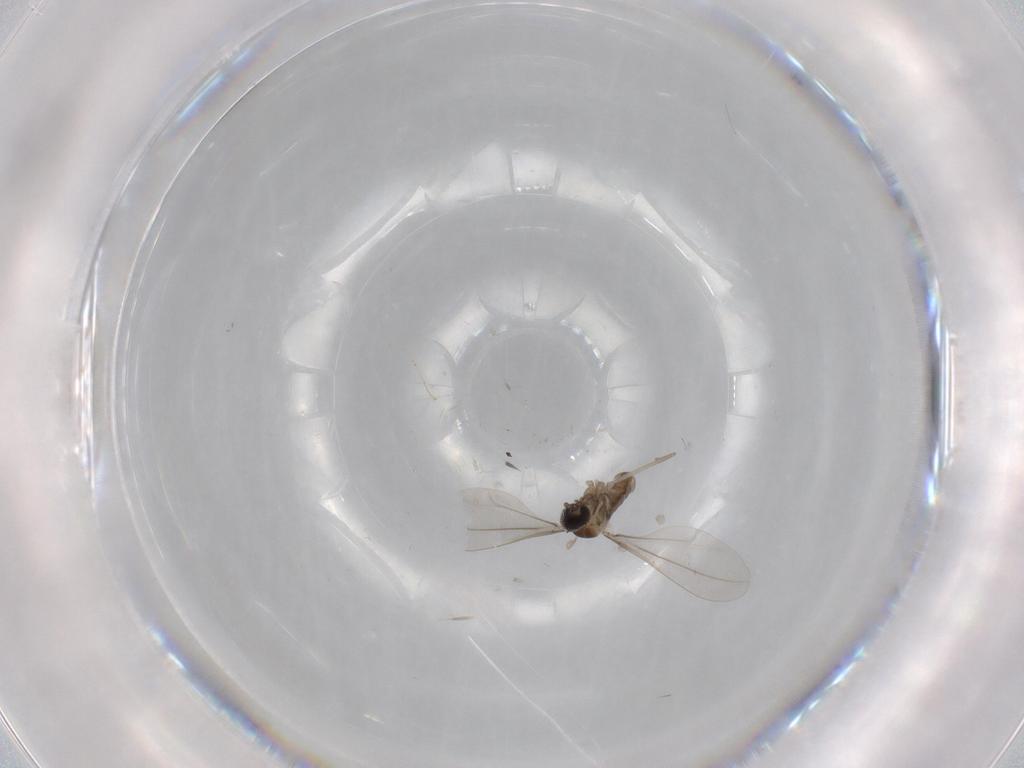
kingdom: Animalia
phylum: Arthropoda
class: Insecta
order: Diptera
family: Cecidomyiidae
